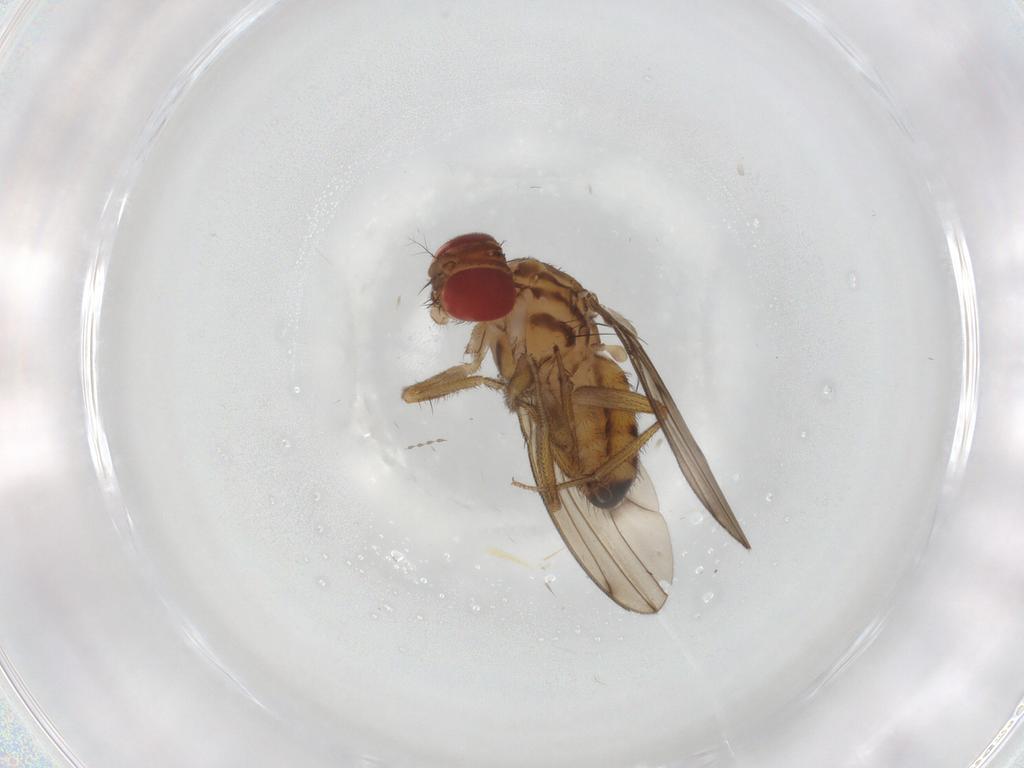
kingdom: Animalia
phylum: Arthropoda
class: Insecta
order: Diptera
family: Drosophilidae
